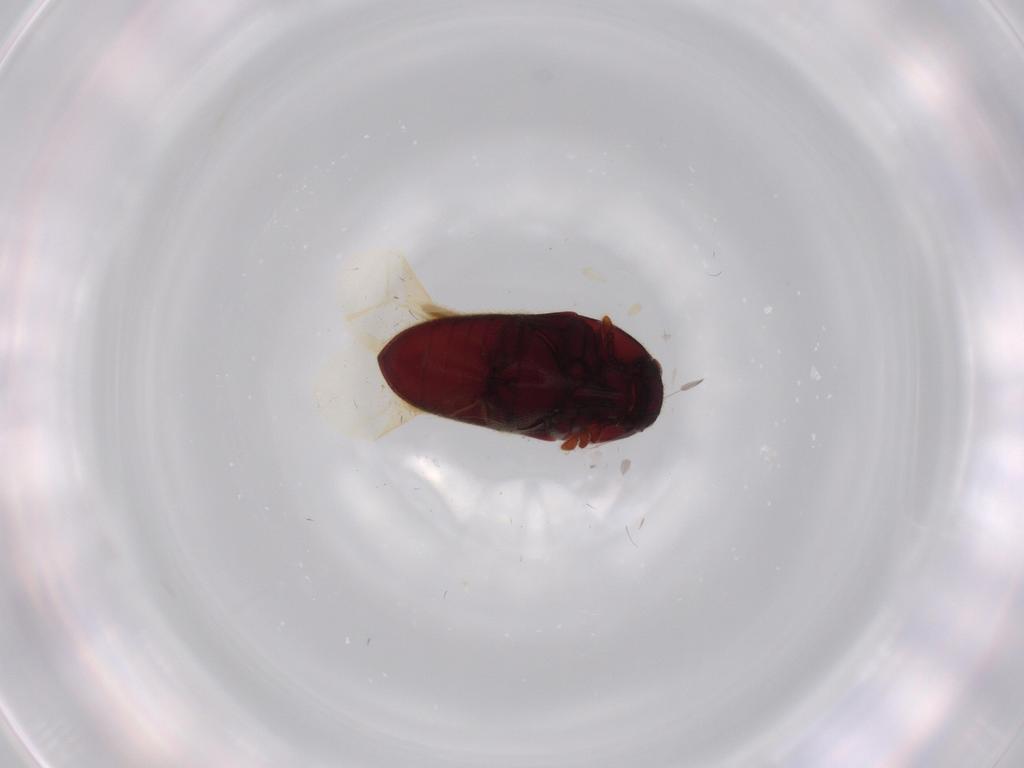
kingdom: Animalia
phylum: Arthropoda
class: Insecta
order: Coleoptera
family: Throscidae
